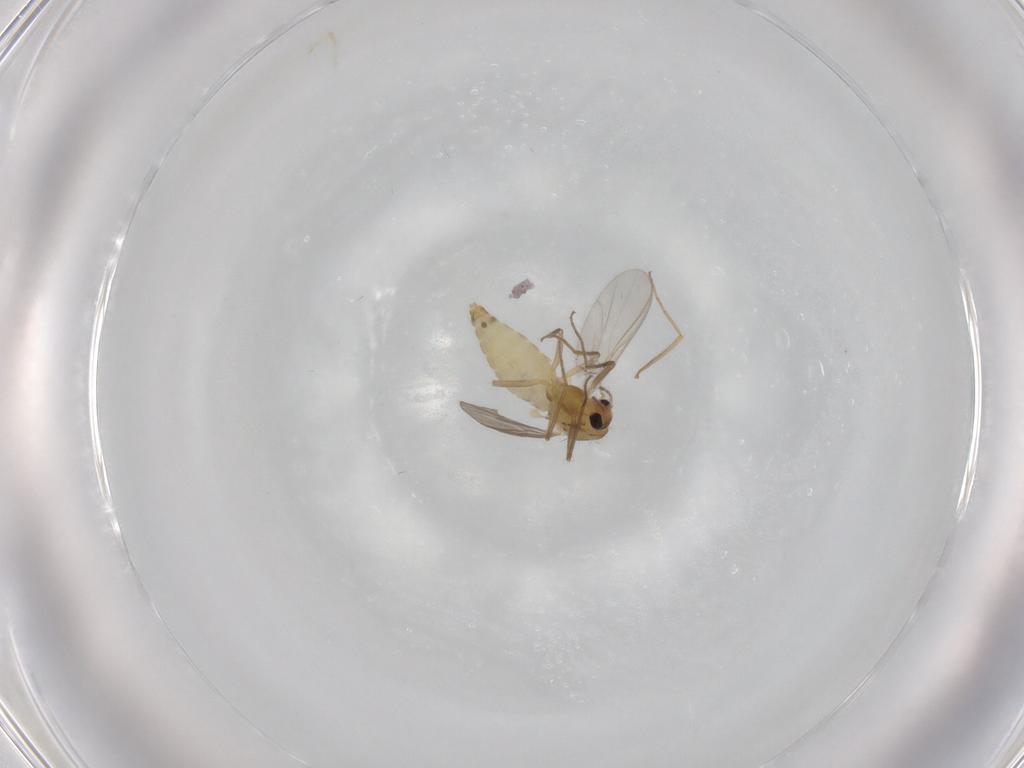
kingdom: Animalia
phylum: Arthropoda
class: Insecta
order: Diptera
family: Chironomidae
